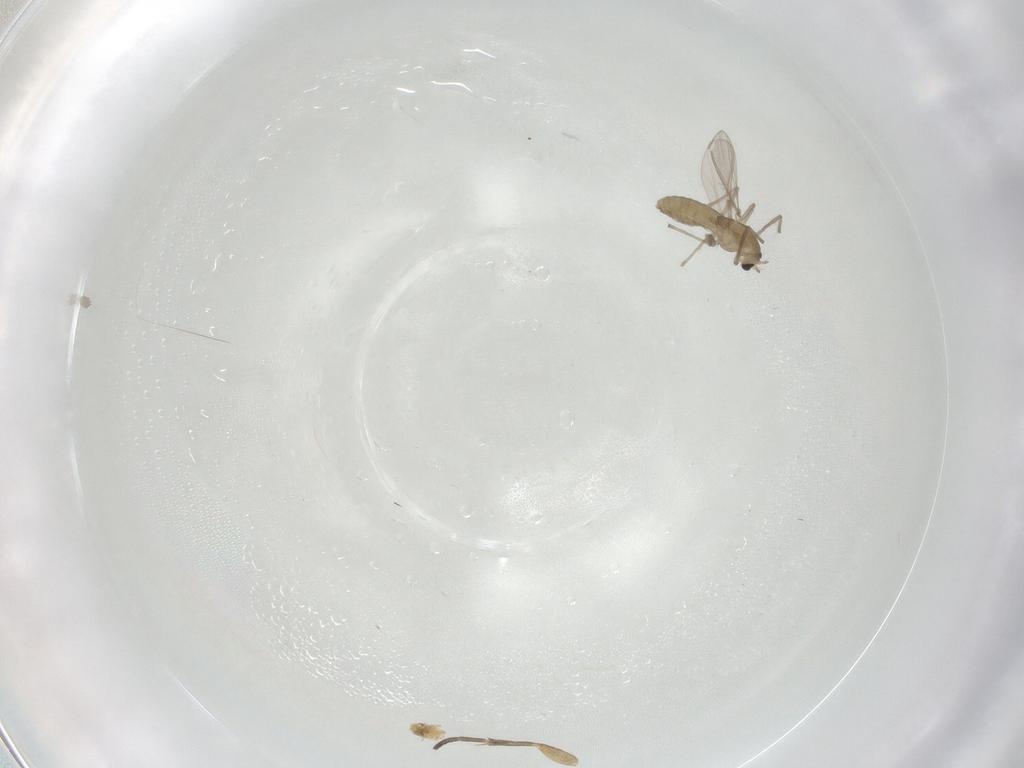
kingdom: Animalia
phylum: Arthropoda
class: Insecta
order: Diptera
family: Chironomidae
